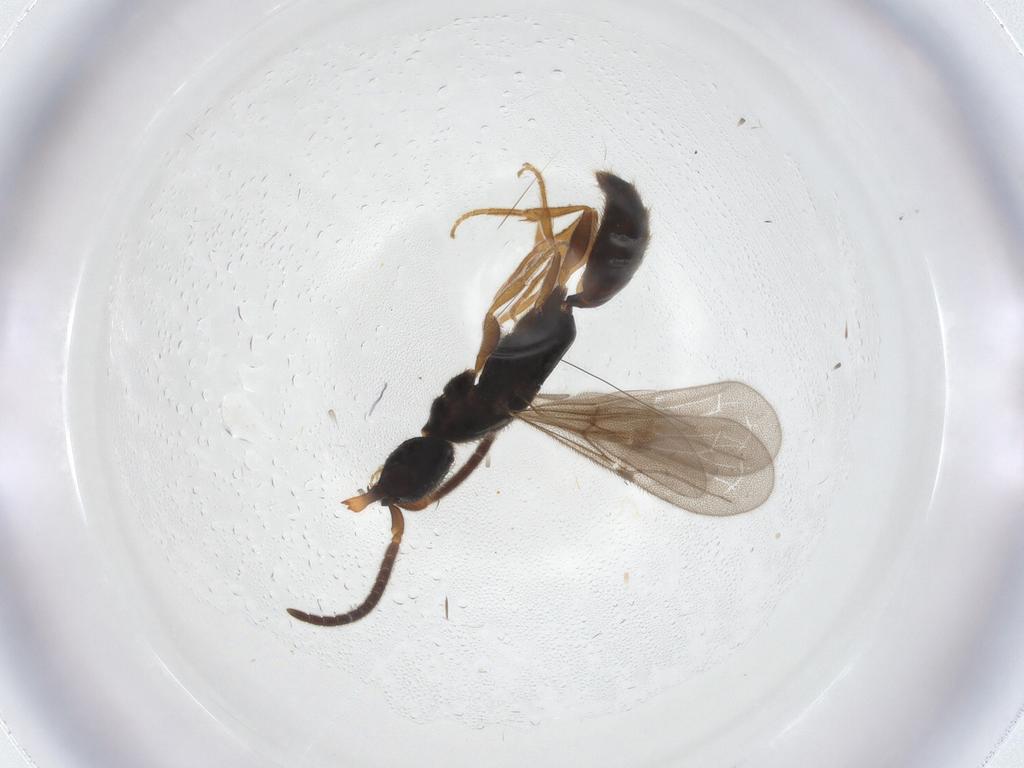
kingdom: Animalia
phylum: Arthropoda
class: Insecta
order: Hymenoptera
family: Bethylidae
